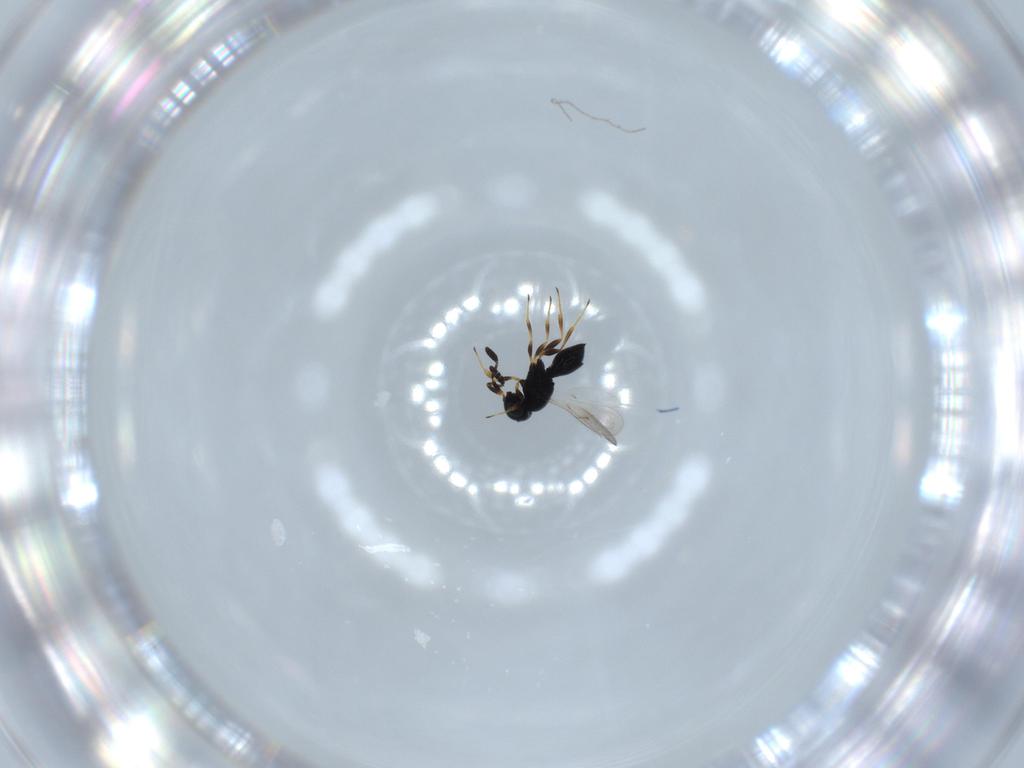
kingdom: Animalia
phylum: Arthropoda
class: Insecta
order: Hymenoptera
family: Scelionidae
